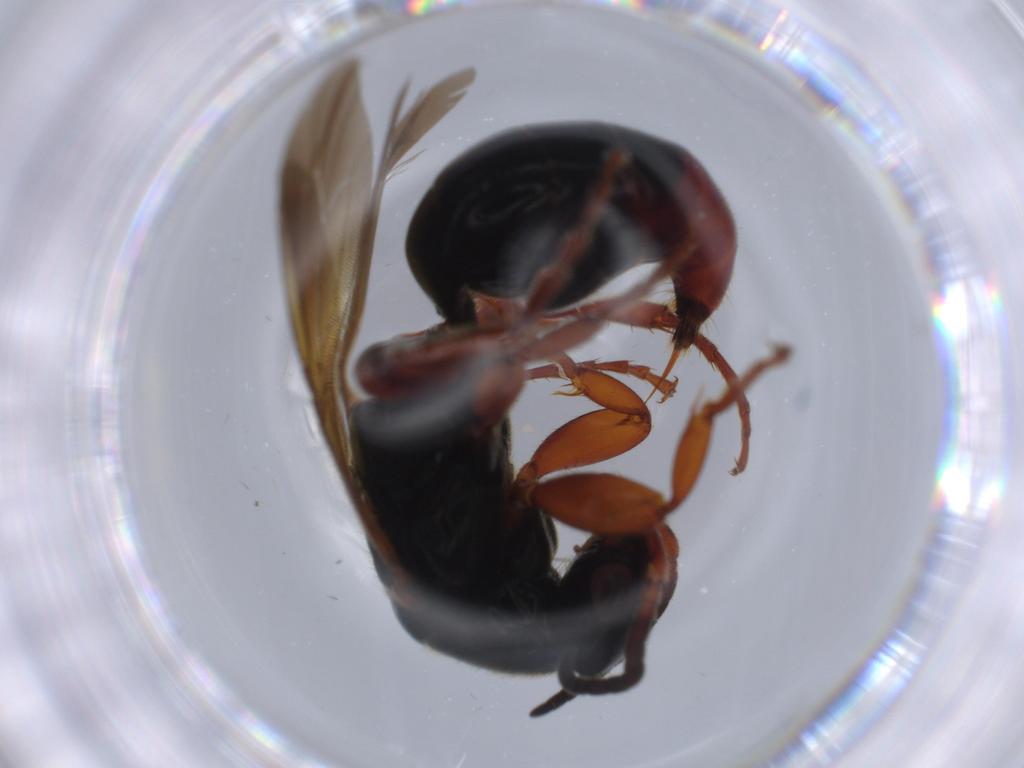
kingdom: Animalia
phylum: Arthropoda
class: Insecta
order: Hymenoptera
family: Bethylidae
